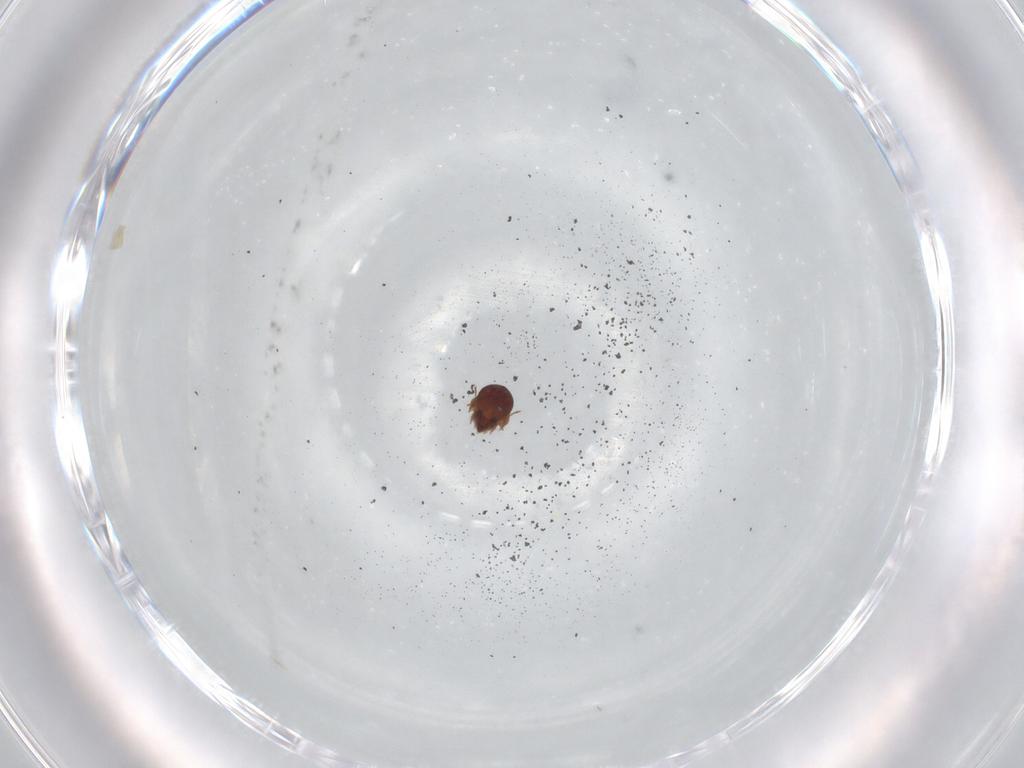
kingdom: Animalia
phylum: Arthropoda
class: Arachnida
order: Sarcoptiformes
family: Phenopelopidae
